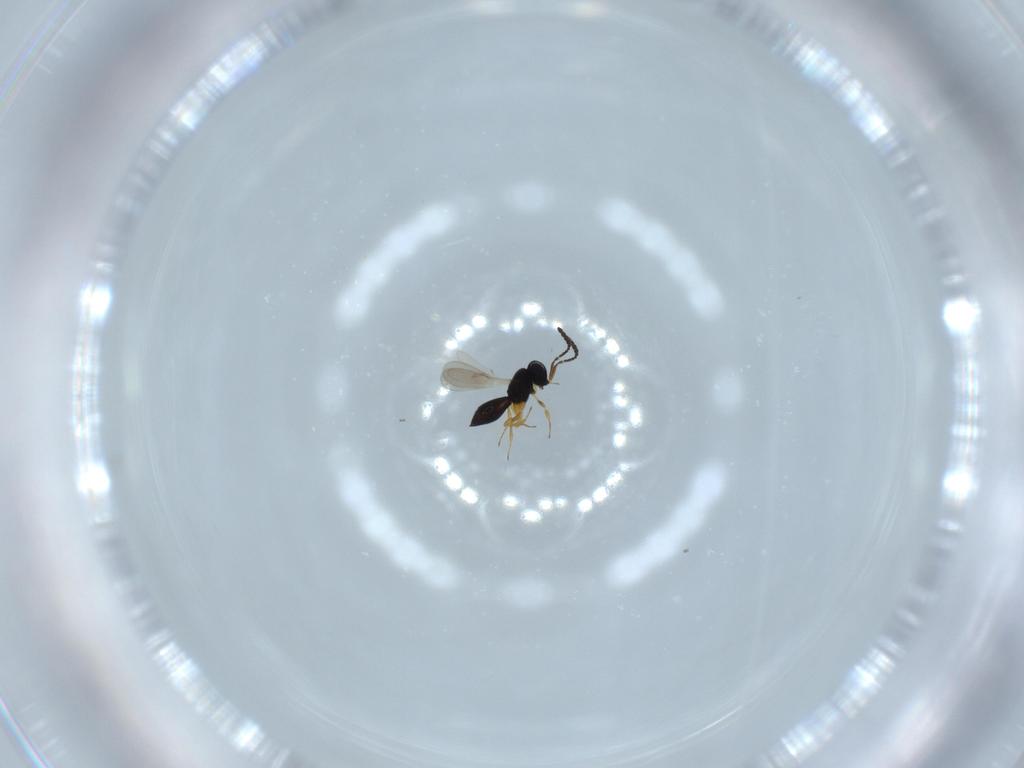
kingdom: Animalia
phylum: Arthropoda
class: Insecta
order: Hymenoptera
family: Scelionidae
